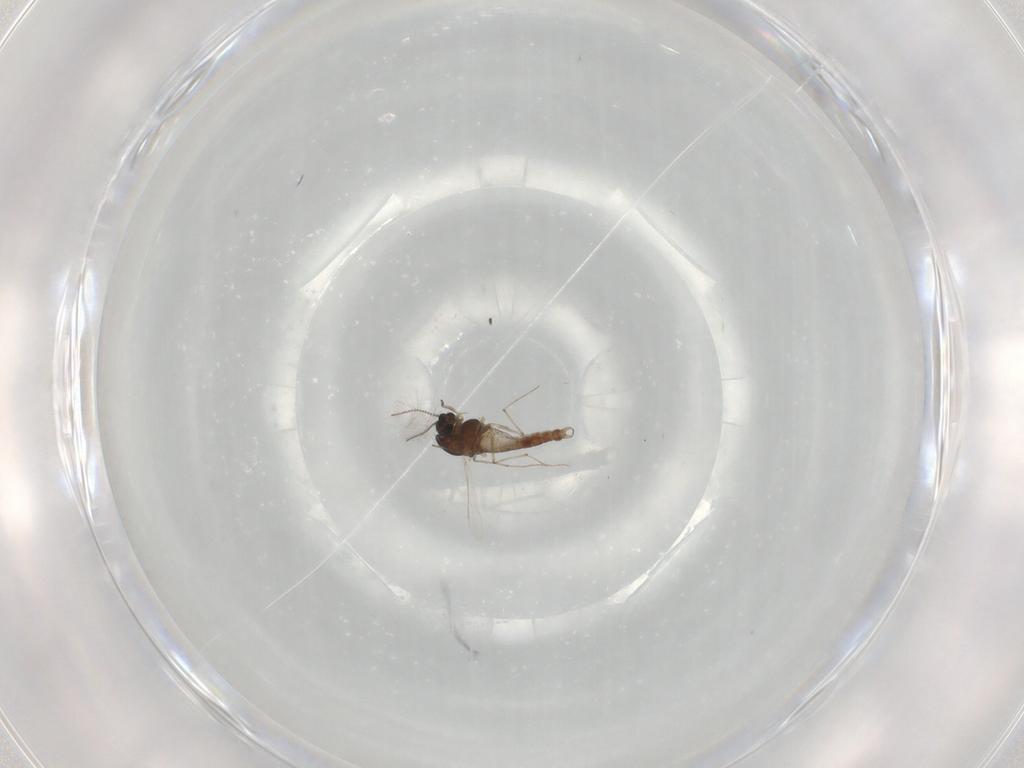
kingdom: Animalia
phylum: Arthropoda
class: Insecta
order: Diptera
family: Chironomidae
